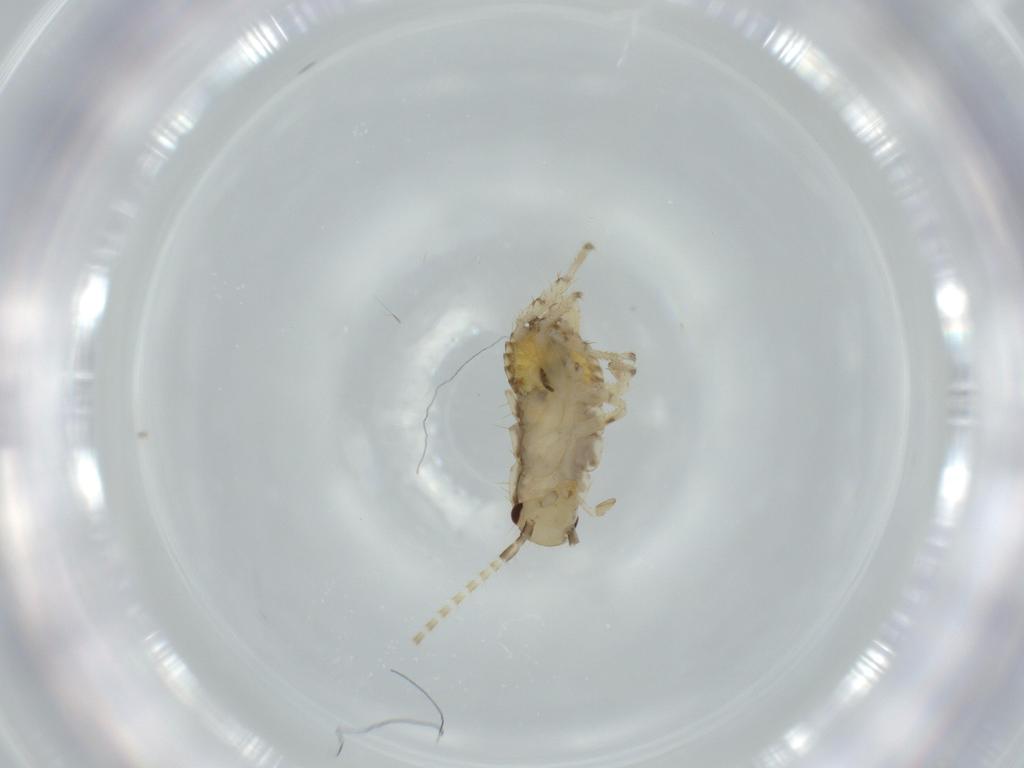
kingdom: Animalia
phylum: Arthropoda
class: Insecta
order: Blattodea
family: Ectobiidae
